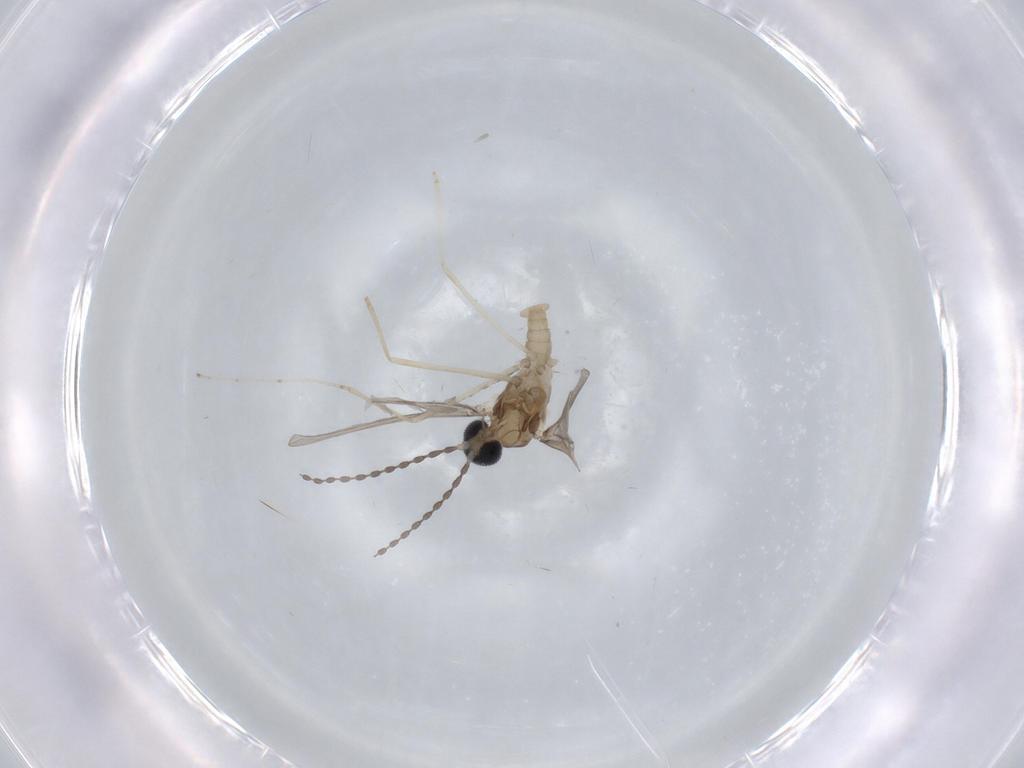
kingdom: Animalia
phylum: Arthropoda
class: Insecta
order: Diptera
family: Cecidomyiidae
